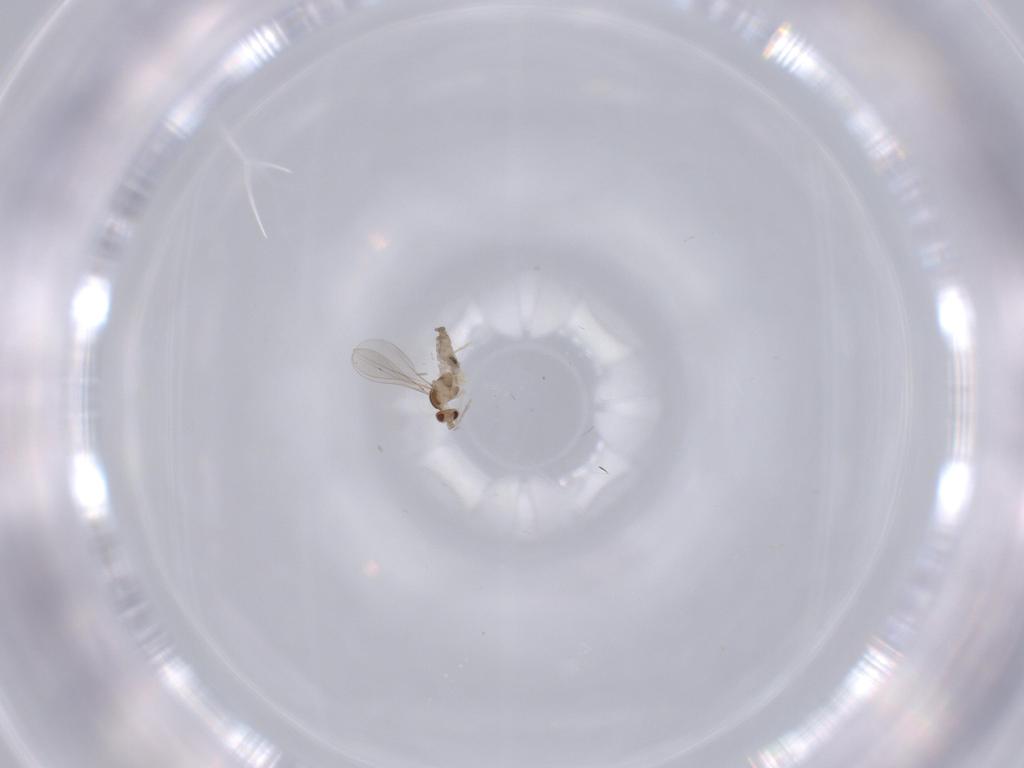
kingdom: Animalia
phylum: Arthropoda
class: Insecta
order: Diptera
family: Cecidomyiidae
